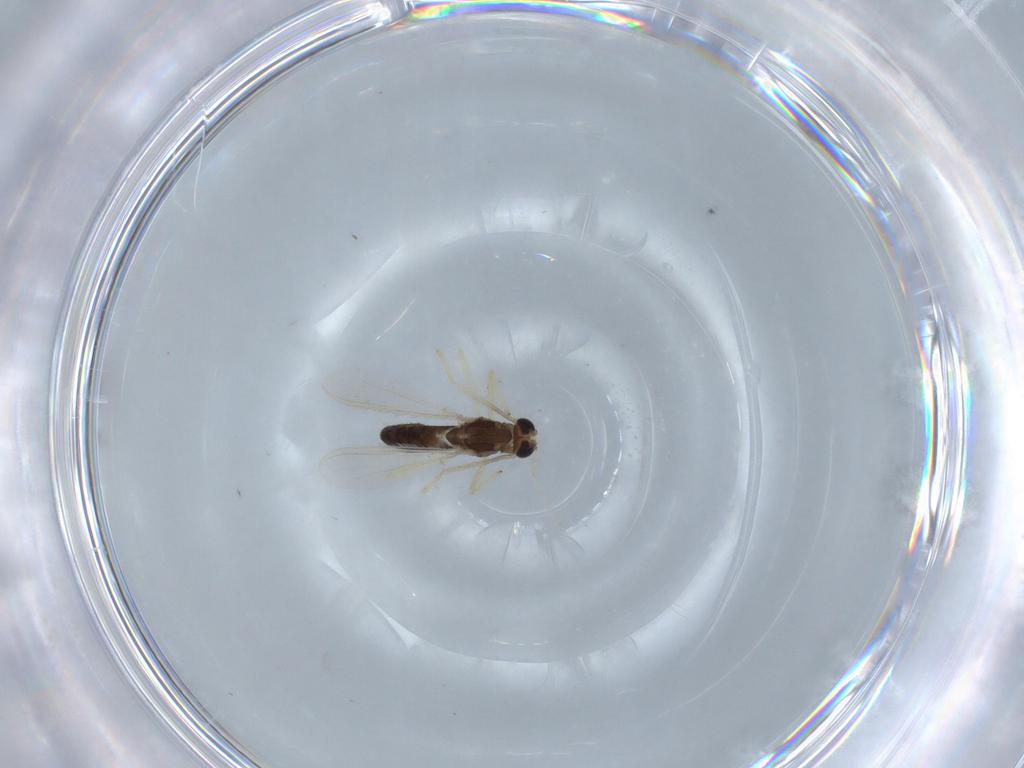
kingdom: Animalia
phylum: Arthropoda
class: Insecta
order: Diptera
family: Chironomidae
